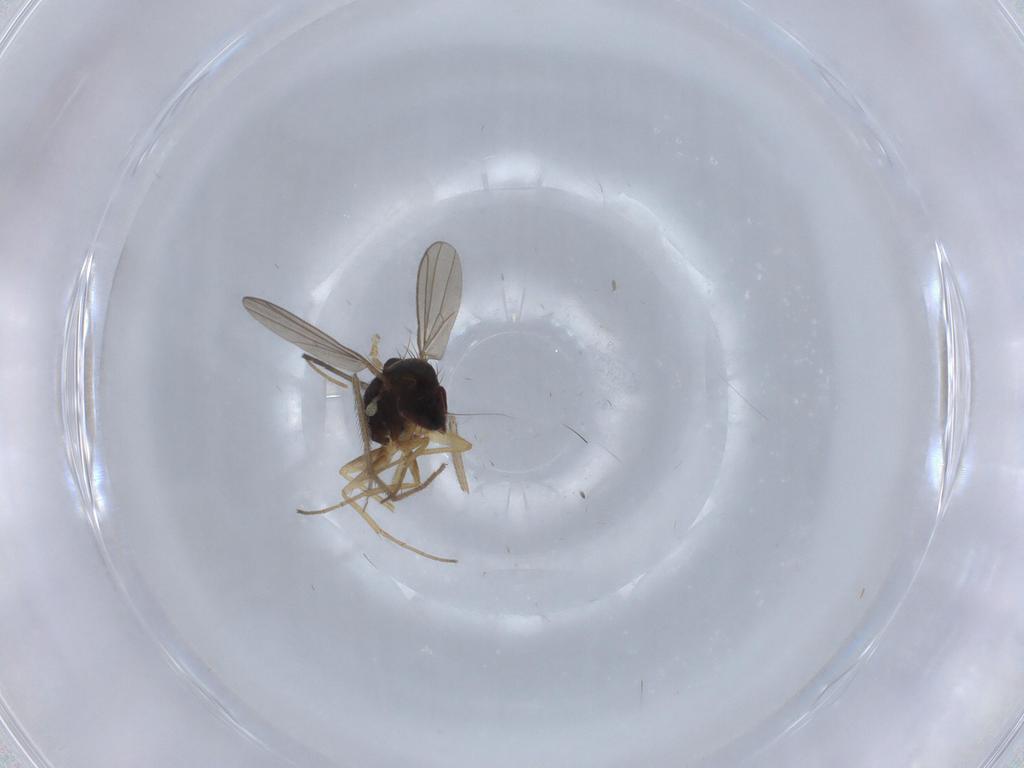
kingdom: Animalia
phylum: Arthropoda
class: Insecta
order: Diptera
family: Dolichopodidae
